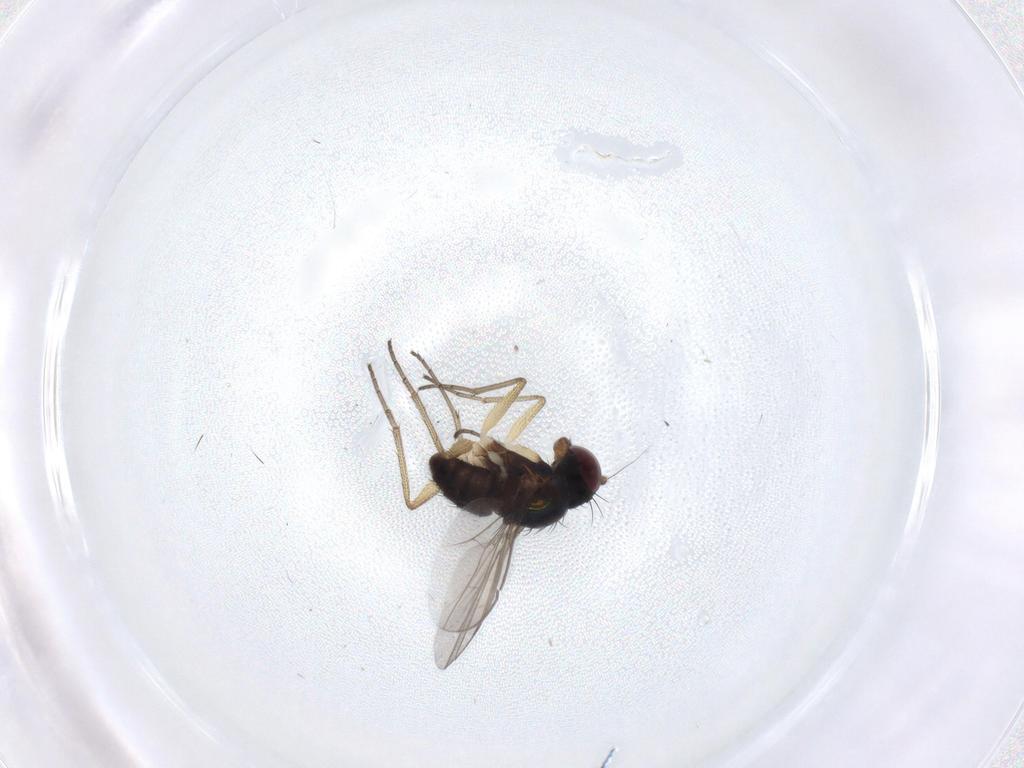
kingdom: Animalia
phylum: Arthropoda
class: Insecta
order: Diptera
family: Dolichopodidae
